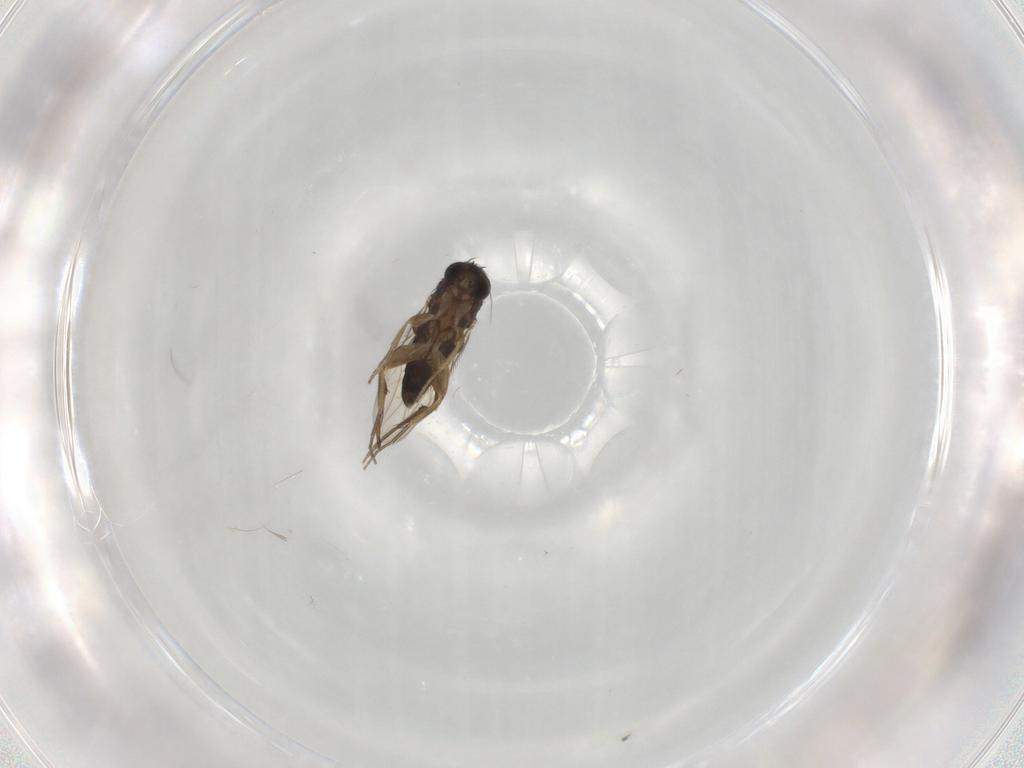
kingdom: Animalia
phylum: Arthropoda
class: Insecta
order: Diptera
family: Phoridae
